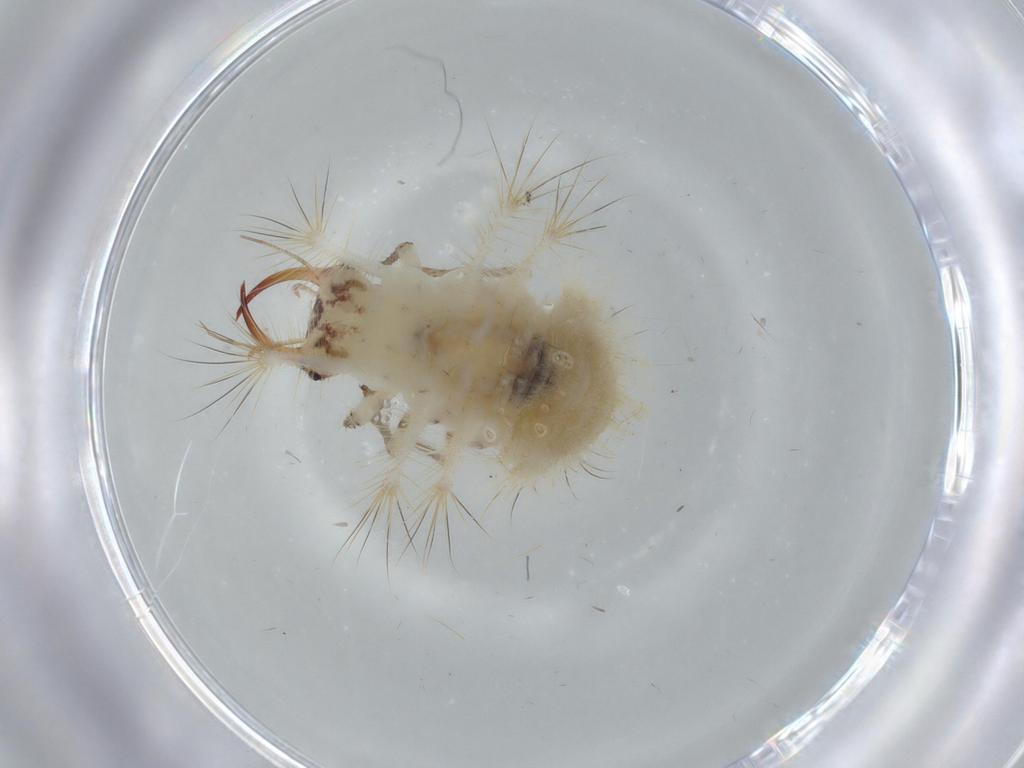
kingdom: Animalia
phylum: Arthropoda
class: Insecta
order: Neuroptera
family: Chrysopidae
